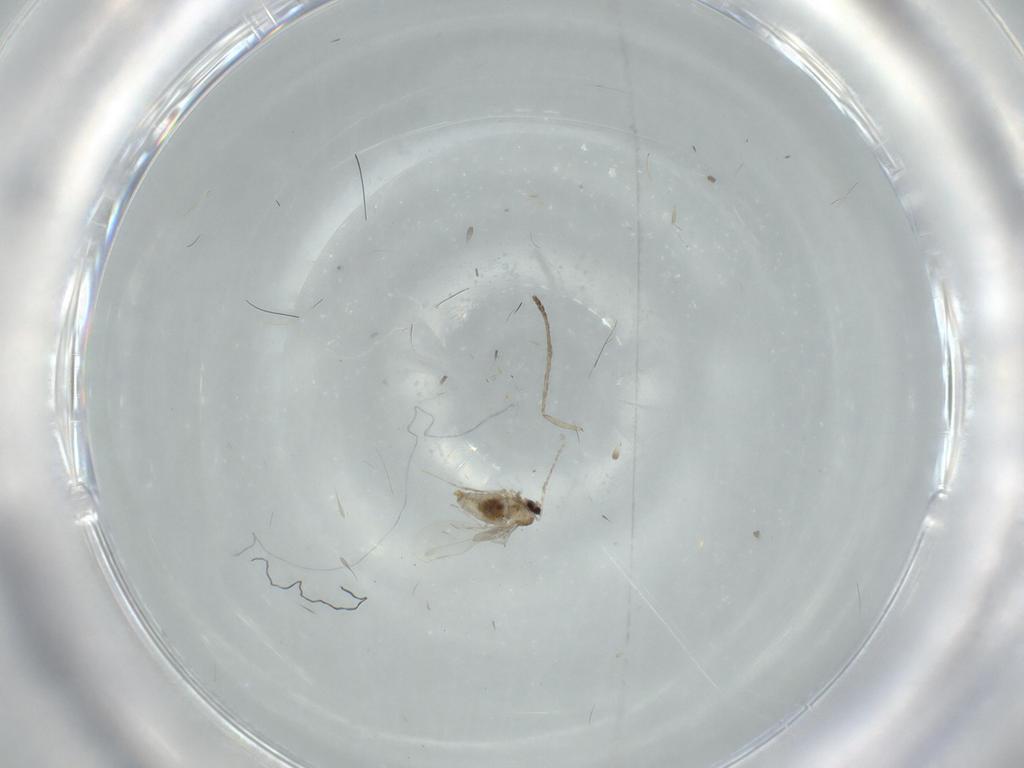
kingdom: Animalia
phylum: Arthropoda
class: Insecta
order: Diptera
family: Cecidomyiidae
